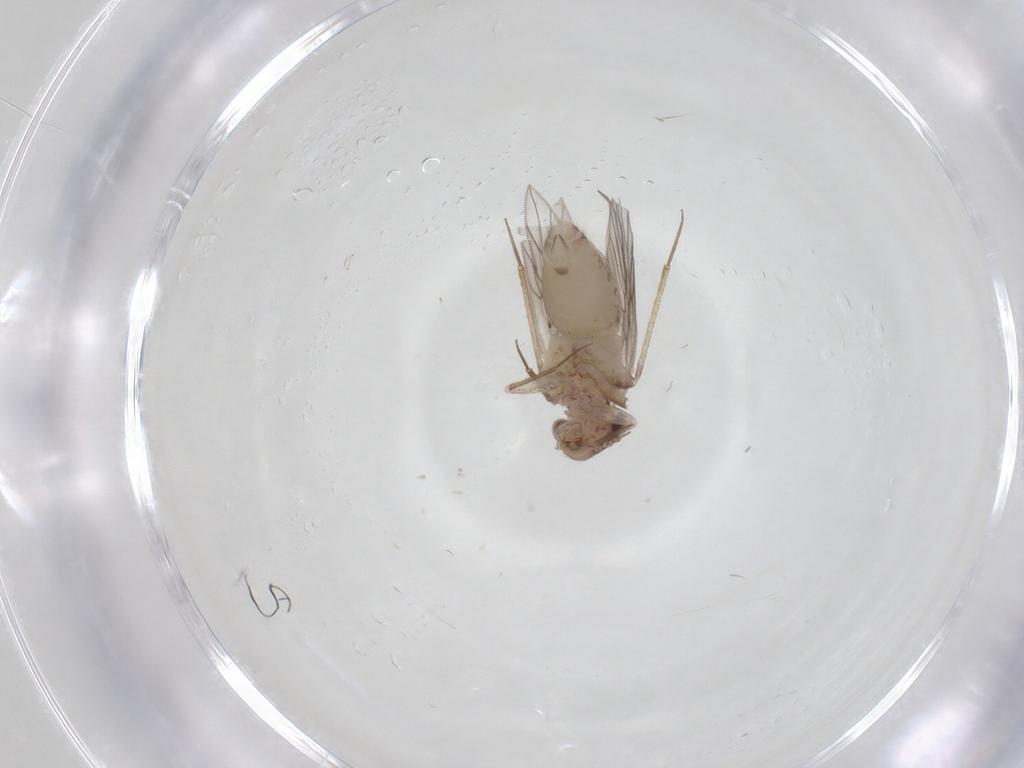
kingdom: Animalia
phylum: Arthropoda
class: Insecta
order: Psocodea
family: Lepidopsocidae
